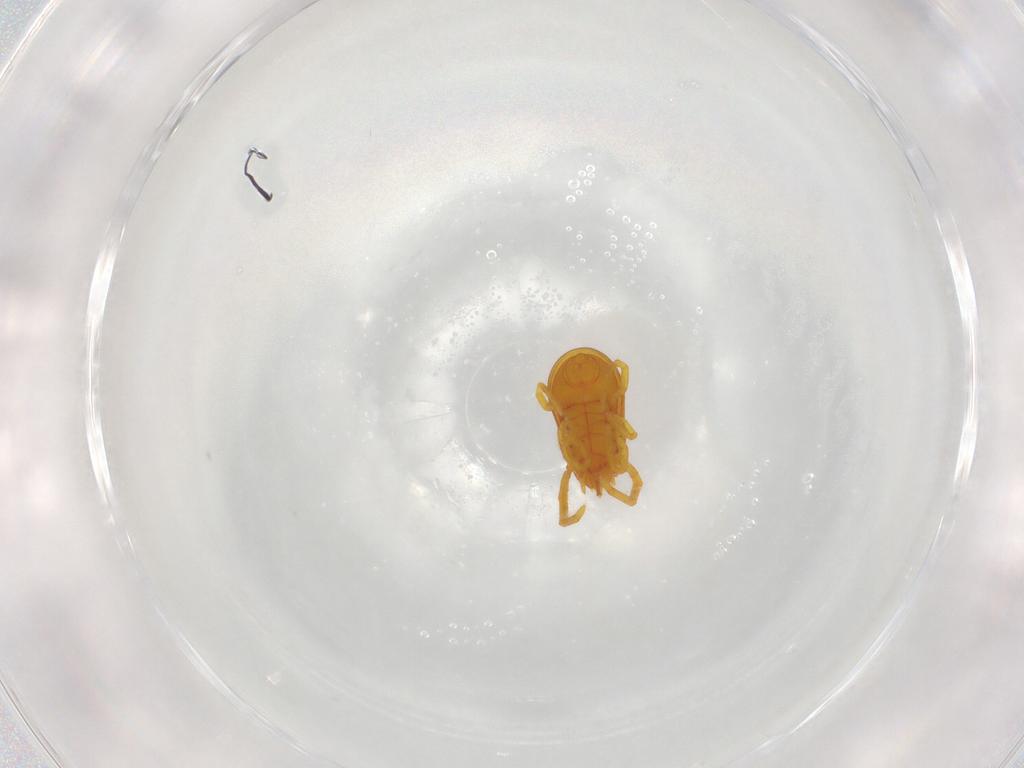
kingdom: Animalia
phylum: Arthropoda
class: Arachnida
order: Trombidiformes
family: Labidostommidae
